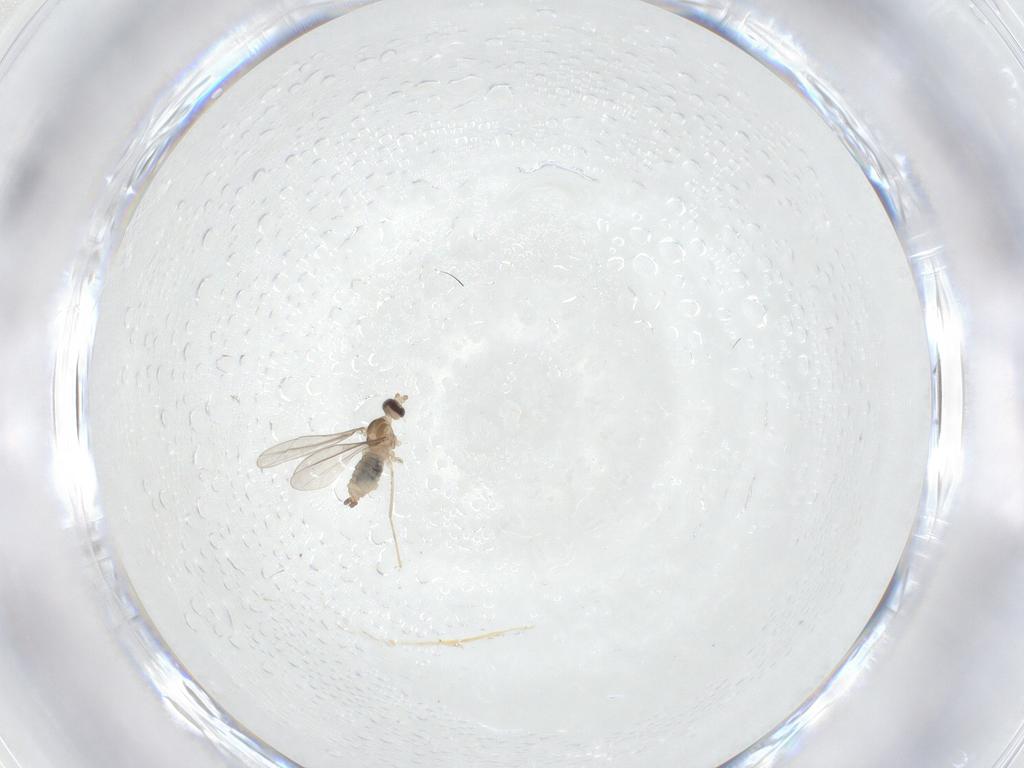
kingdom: Animalia
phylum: Arthropoda
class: Insecta
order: Diptera
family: Cecidomyiidae
